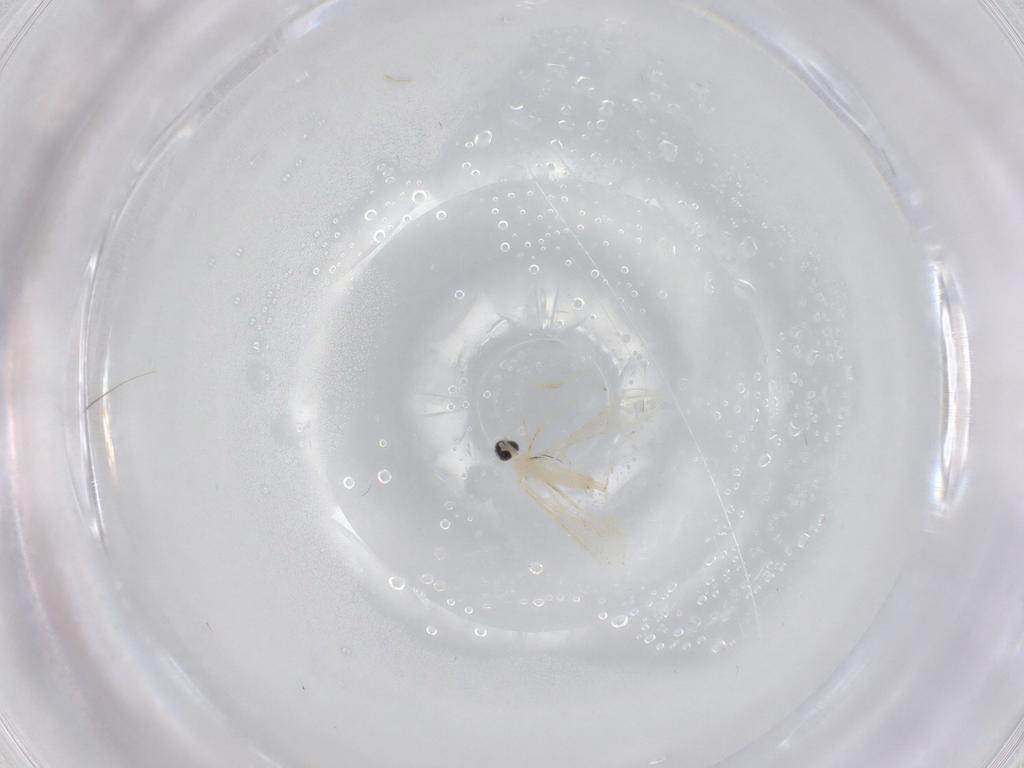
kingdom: Animalia
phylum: Arthropoda
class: Insecta
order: Diptera
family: Cecidomyiidae
